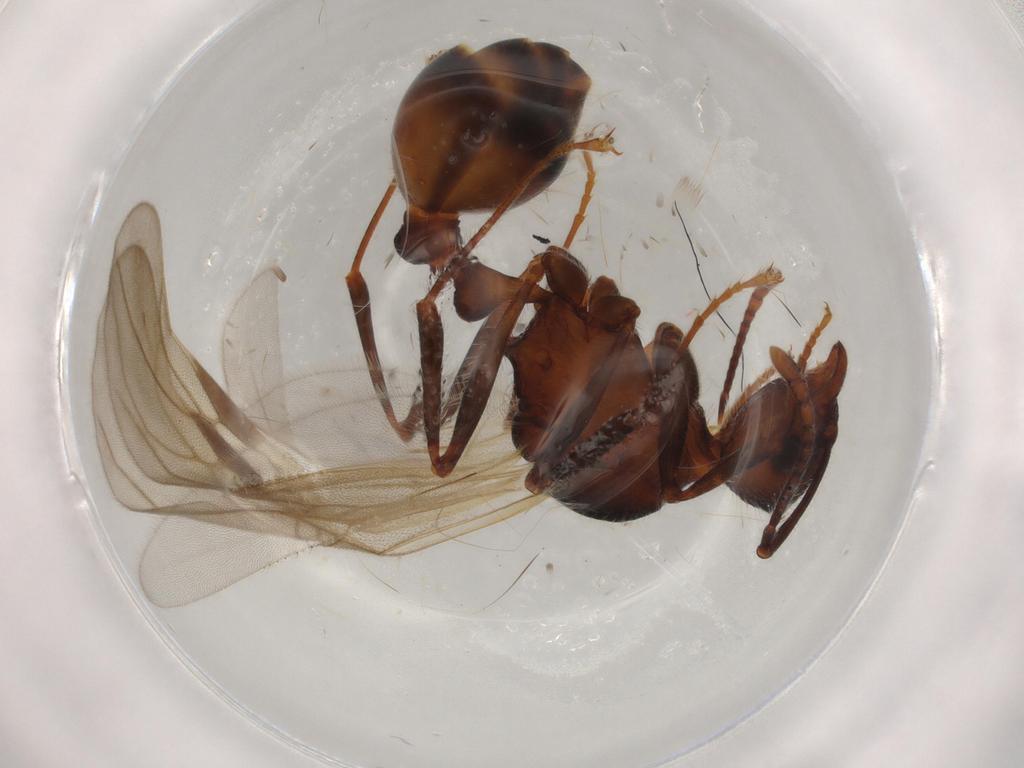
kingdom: Animalia
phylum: Arthropoda
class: Insecta
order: Hymenoptera
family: Formicidae
